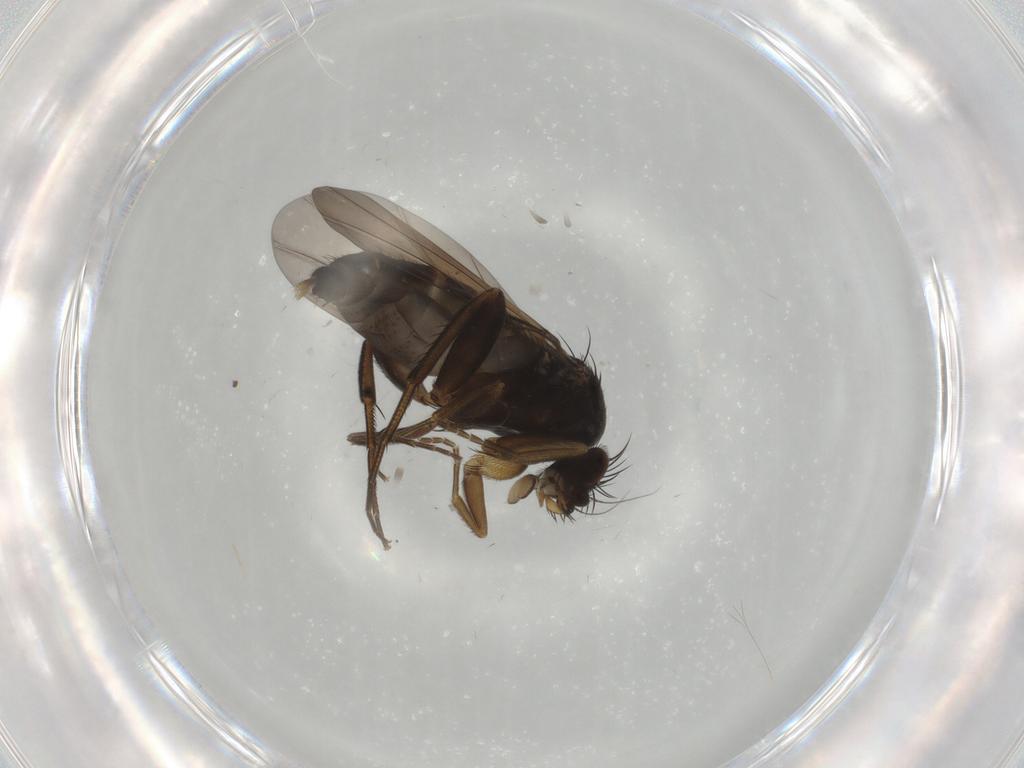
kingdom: Animalia
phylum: Arthropoda
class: Insecta
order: Diptera
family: Phoridae
